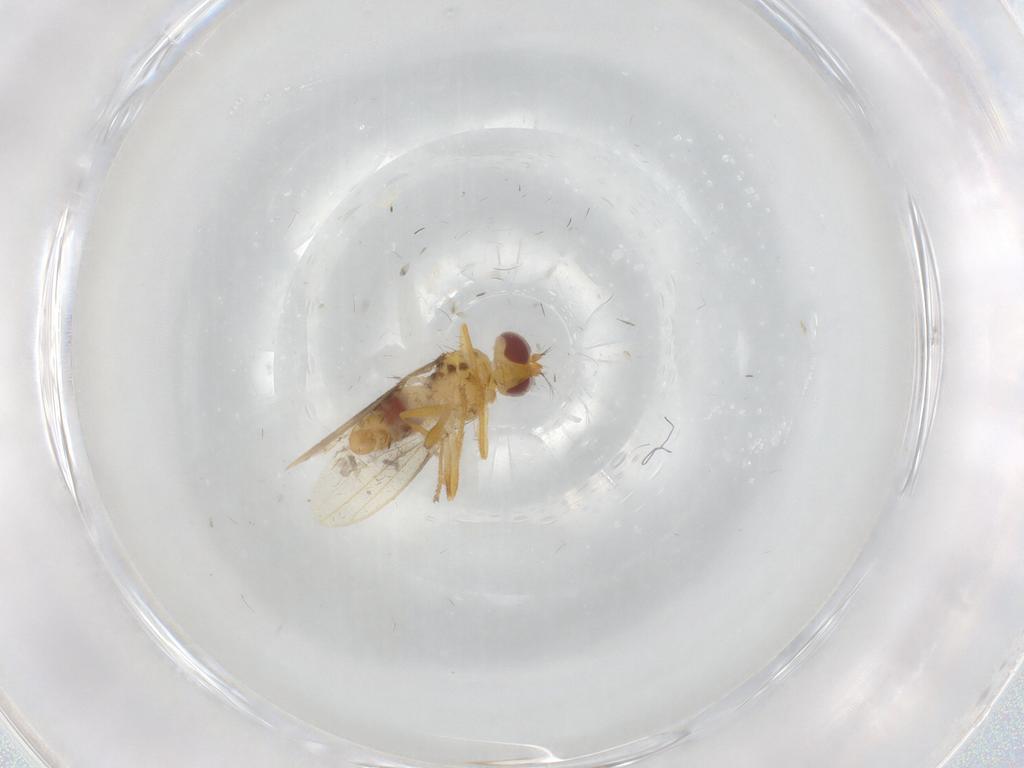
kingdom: Animalia
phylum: Arthropoda
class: Insecta
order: Diptera
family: Periscelididae
